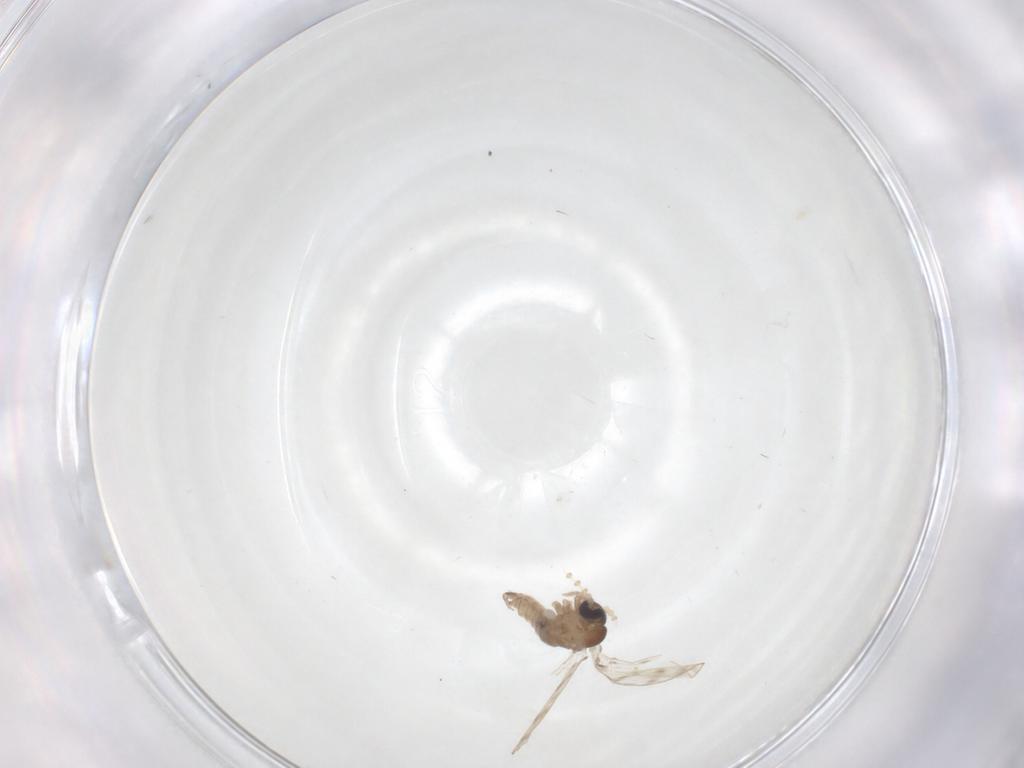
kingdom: Animalia
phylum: Arthropoda
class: Insecta
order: Diptera
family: Psychodidae
